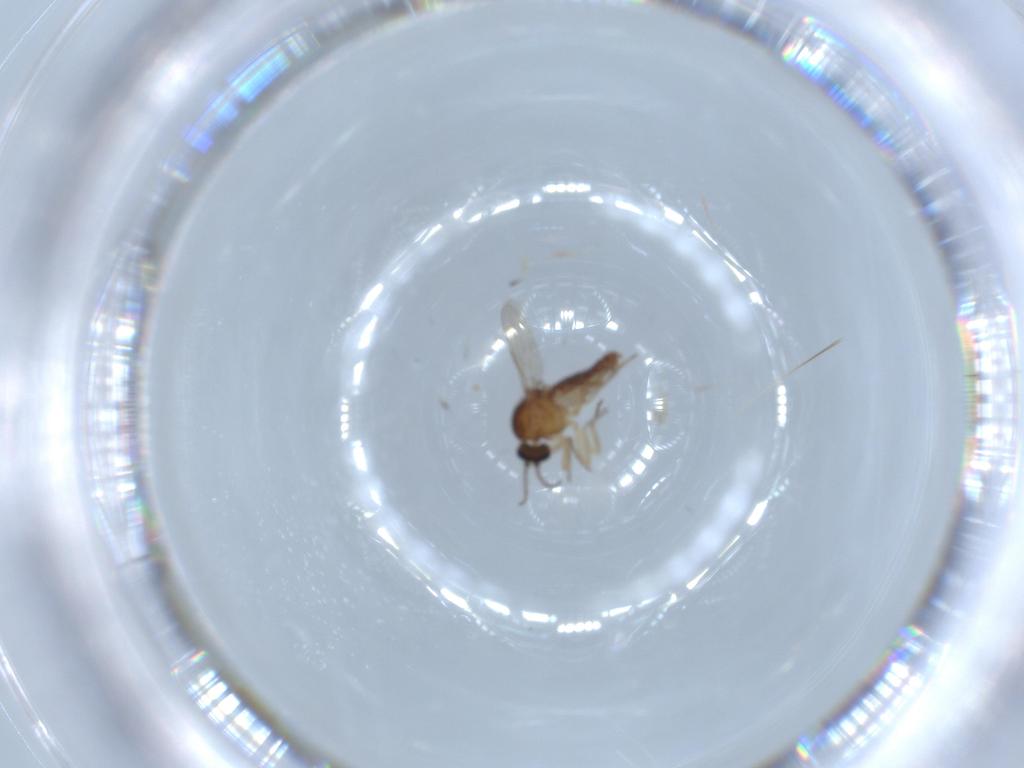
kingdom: Animalia
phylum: Arthropoda
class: Insecta
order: Diptera
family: Ceratopogonidae
